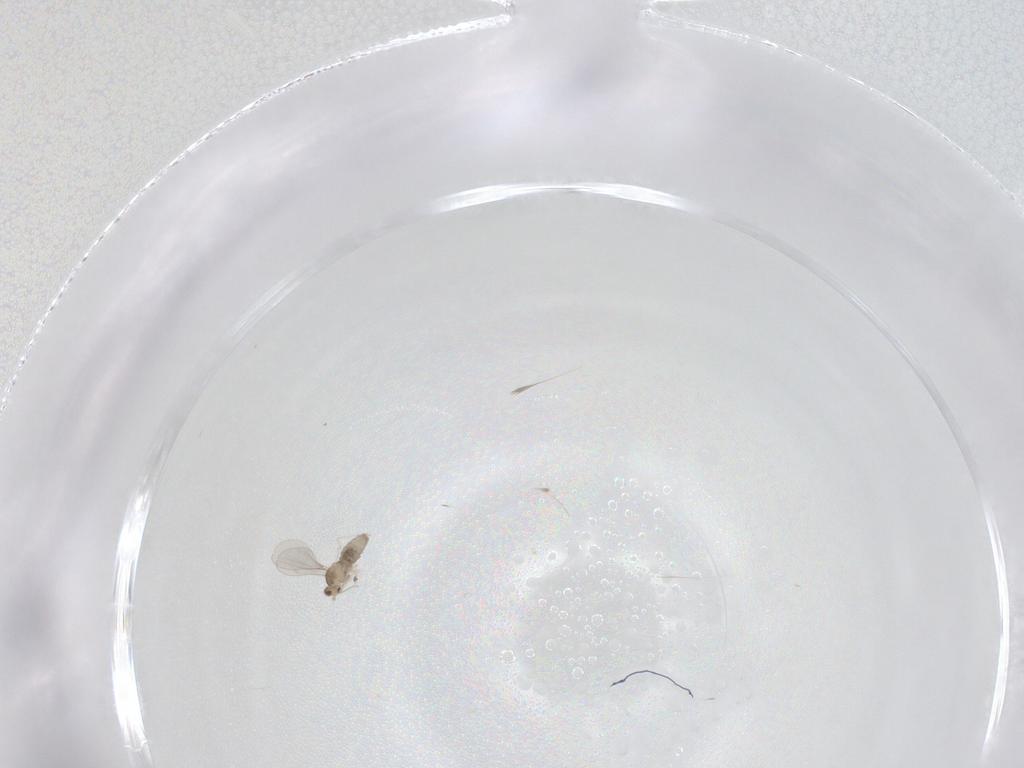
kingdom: Animalia
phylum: Arthropoda
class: Insecta
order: Diptera
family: Cecidomyiidae
